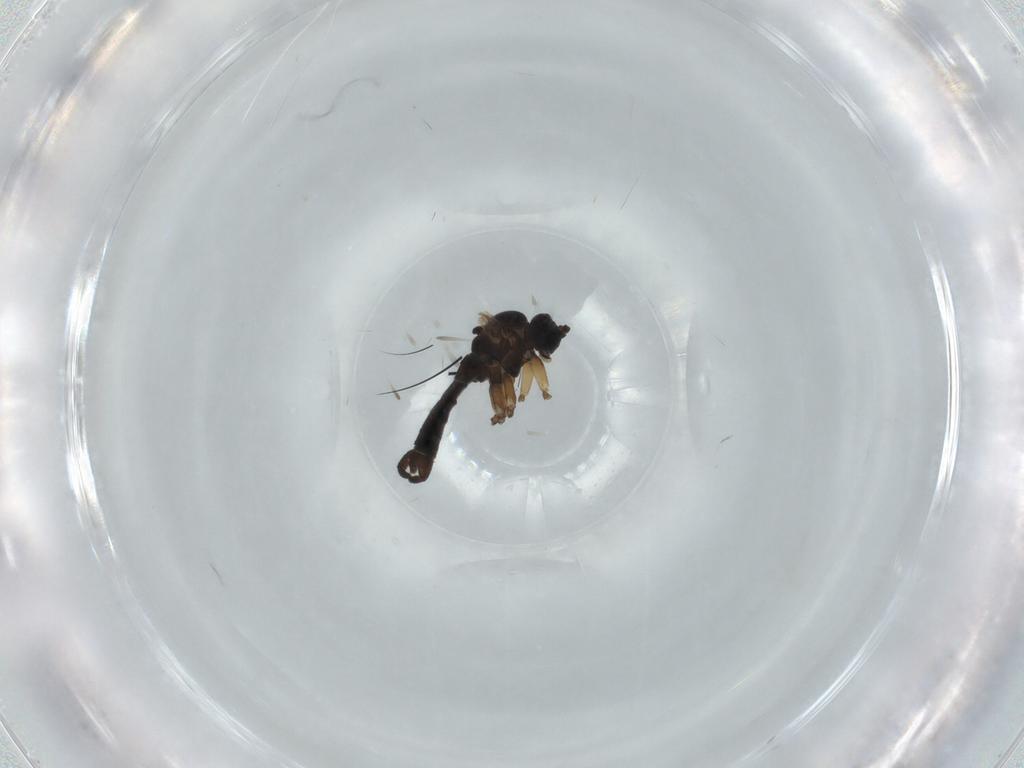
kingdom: Animalia
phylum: Arthropoda
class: Insecta
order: Diptera
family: Sciaridae
